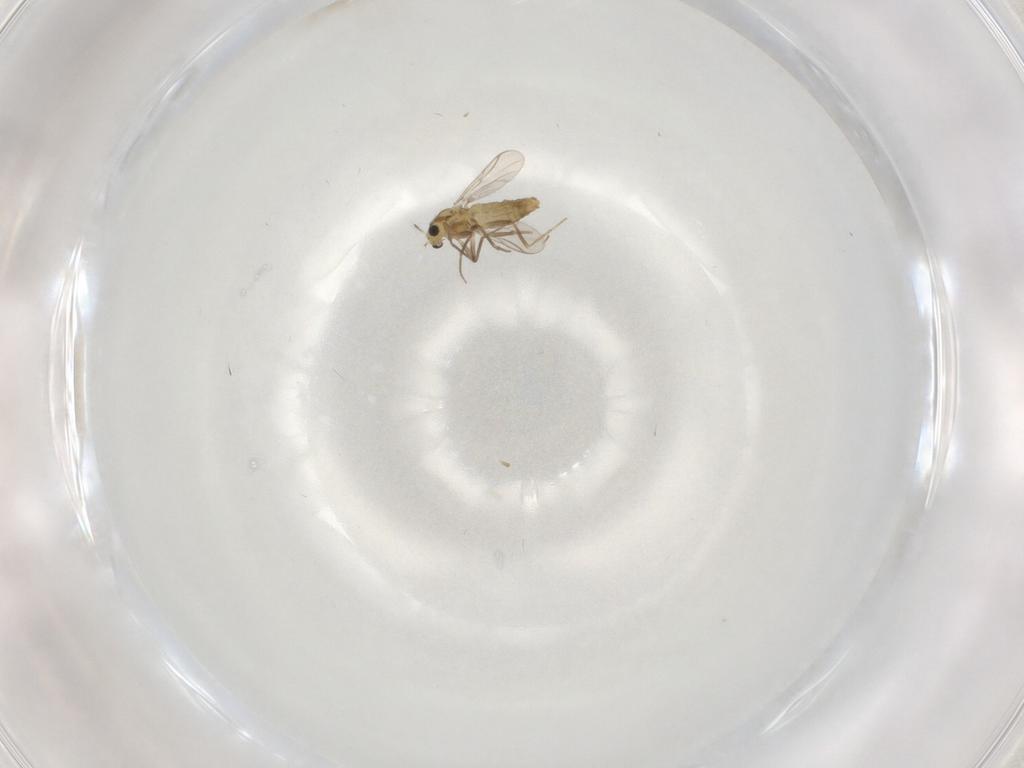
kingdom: Animalia
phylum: Arthropoda
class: Insecta
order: Diptera
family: Chironomidae
